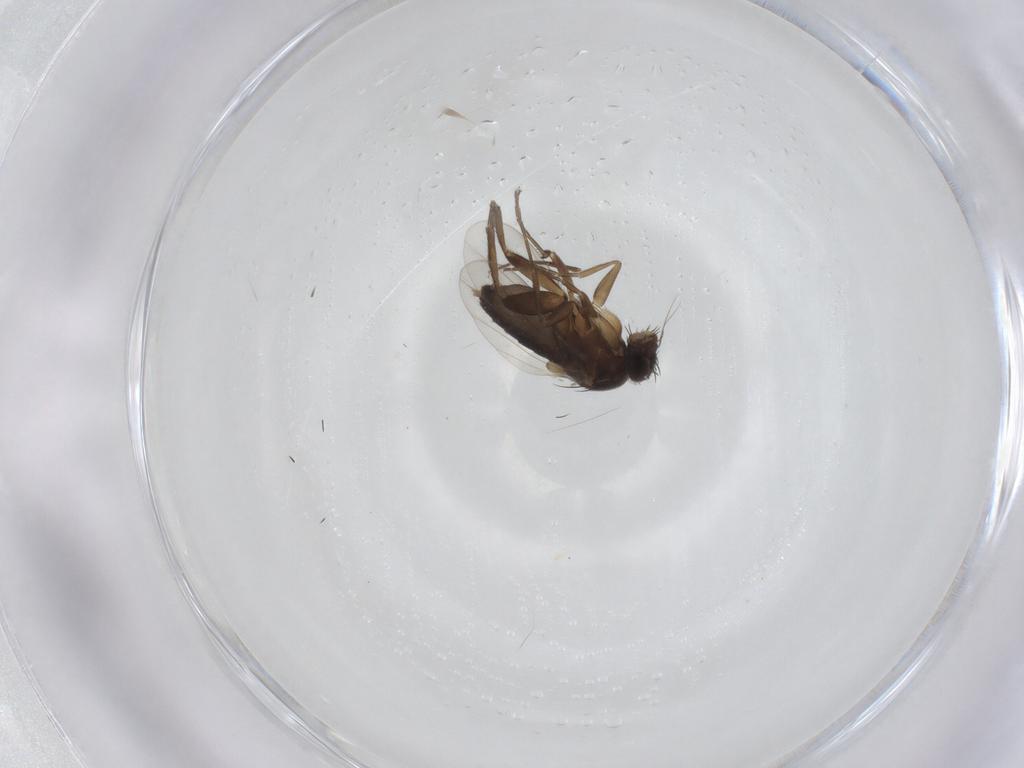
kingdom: Animalia
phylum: Arthropoda
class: Insecta
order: Diptera
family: Phoridae
